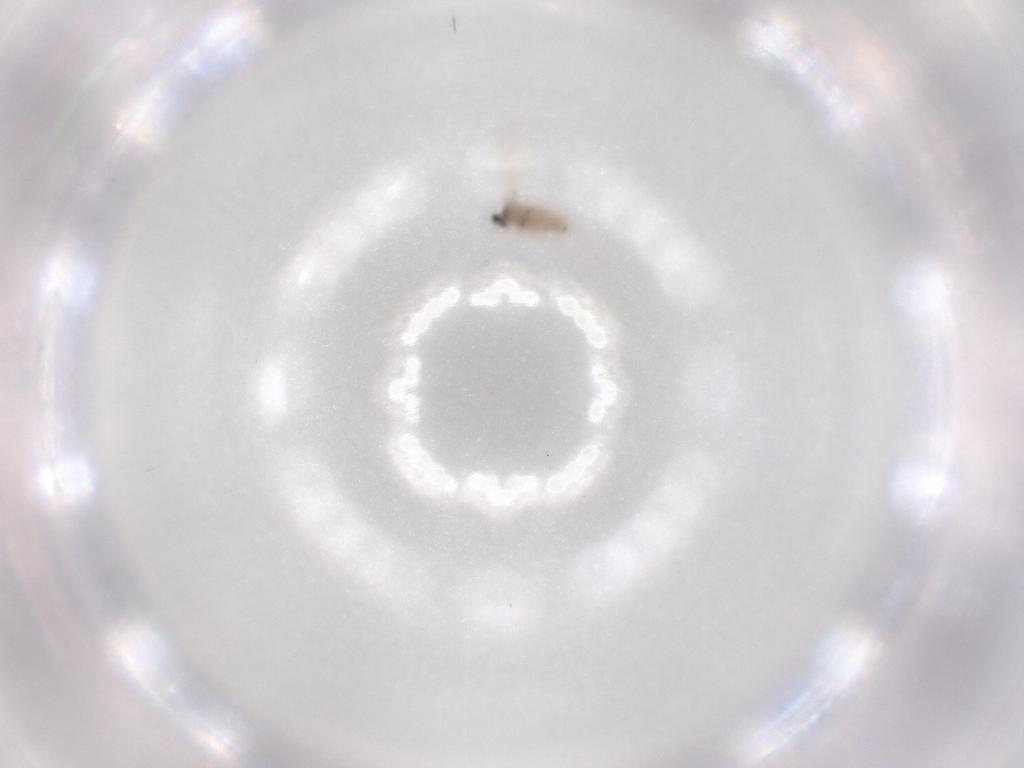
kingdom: Animalia
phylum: Arthropoda
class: Insecta
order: Diptera
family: Cecidomyiidae
